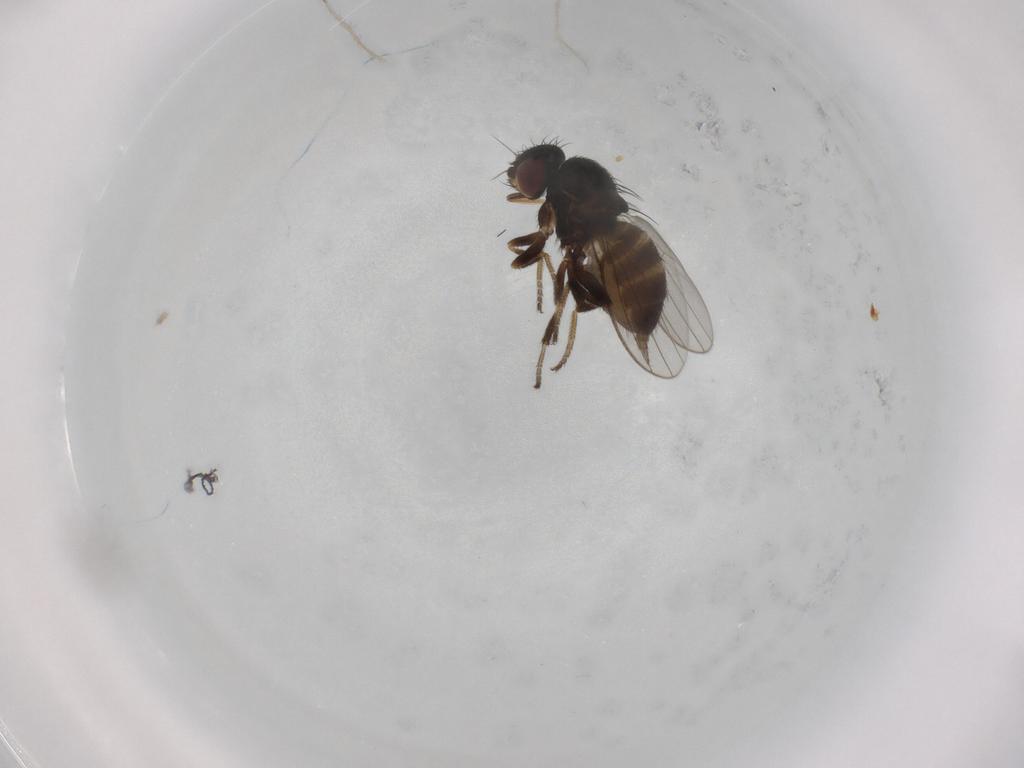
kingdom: Animalia
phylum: Arthropoda
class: Insecta
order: Diptera
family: Milichiidae
